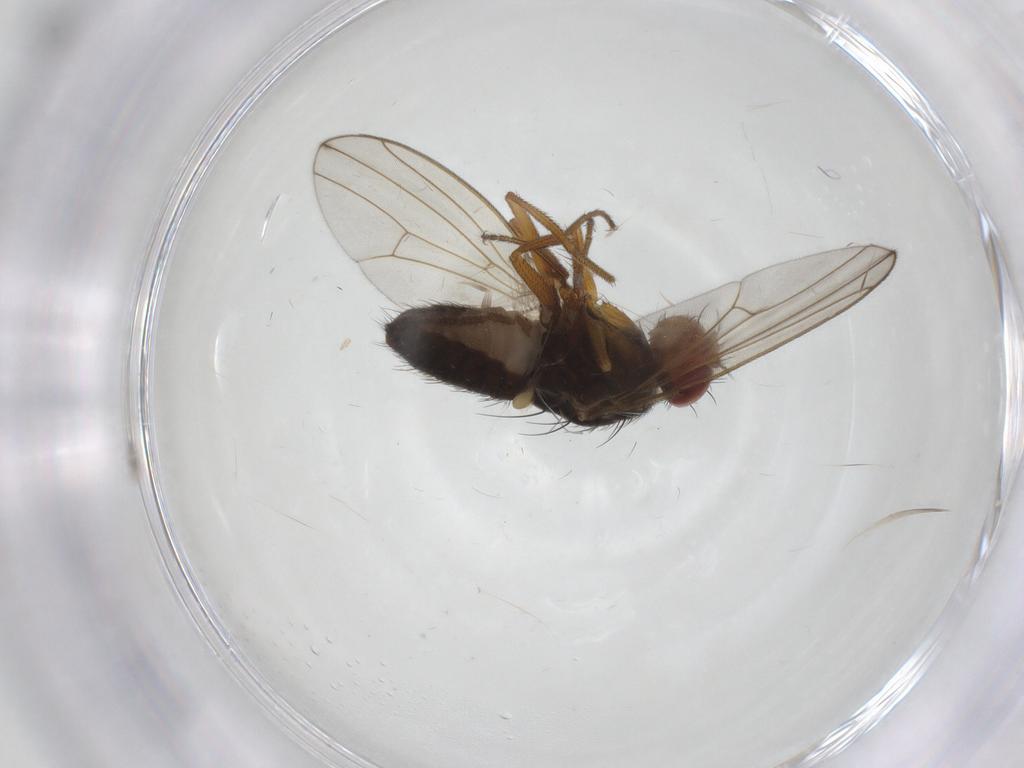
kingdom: Animalia
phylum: Arthropoda
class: Insecta
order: Diptera
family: Drosophilidae
